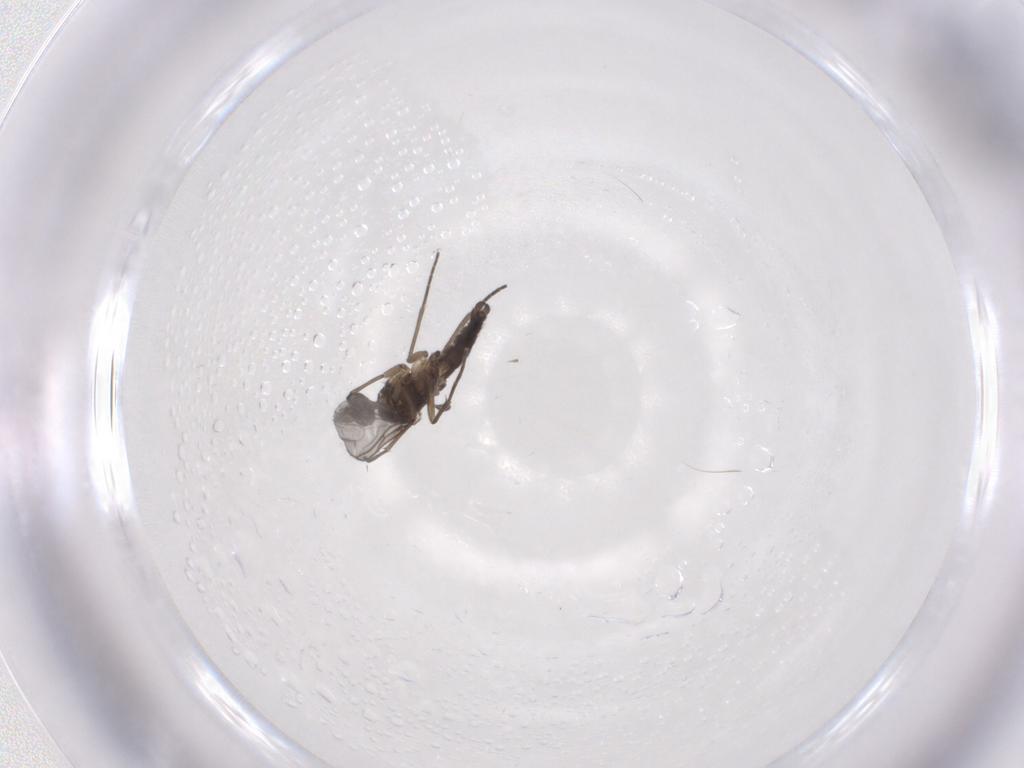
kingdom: Animalia
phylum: Arthropoda
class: Insecta
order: Diptera
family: Sciaridae
